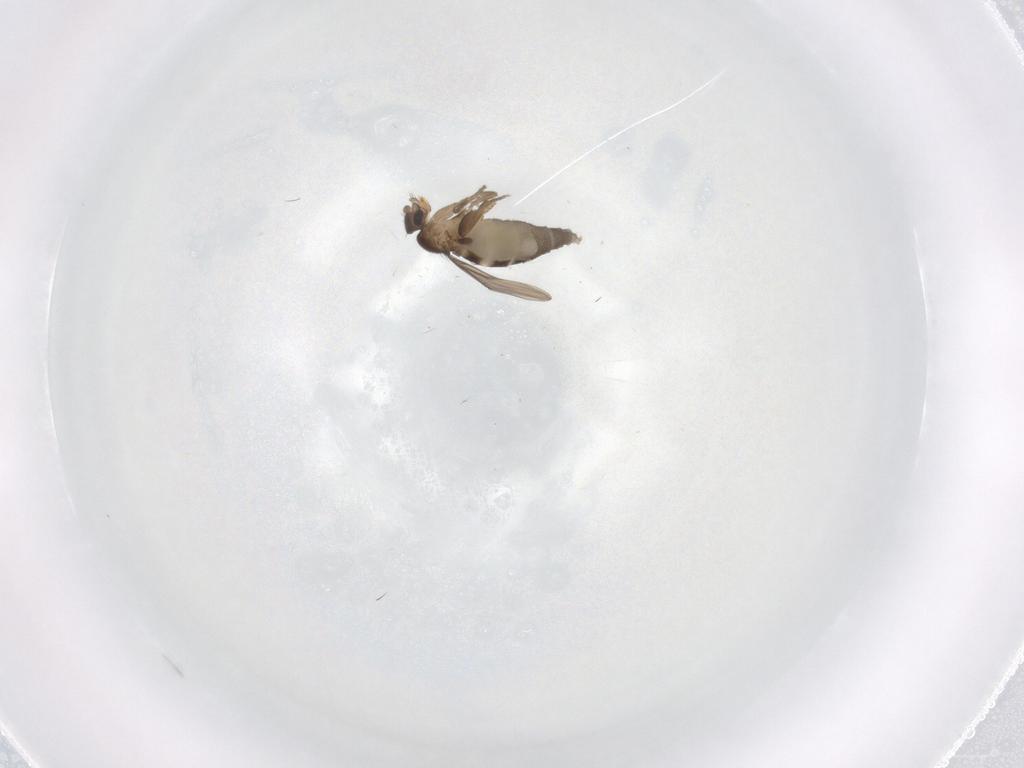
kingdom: Animalia
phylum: Arthropoda
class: Insecta
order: Diptera
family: Phoridae
